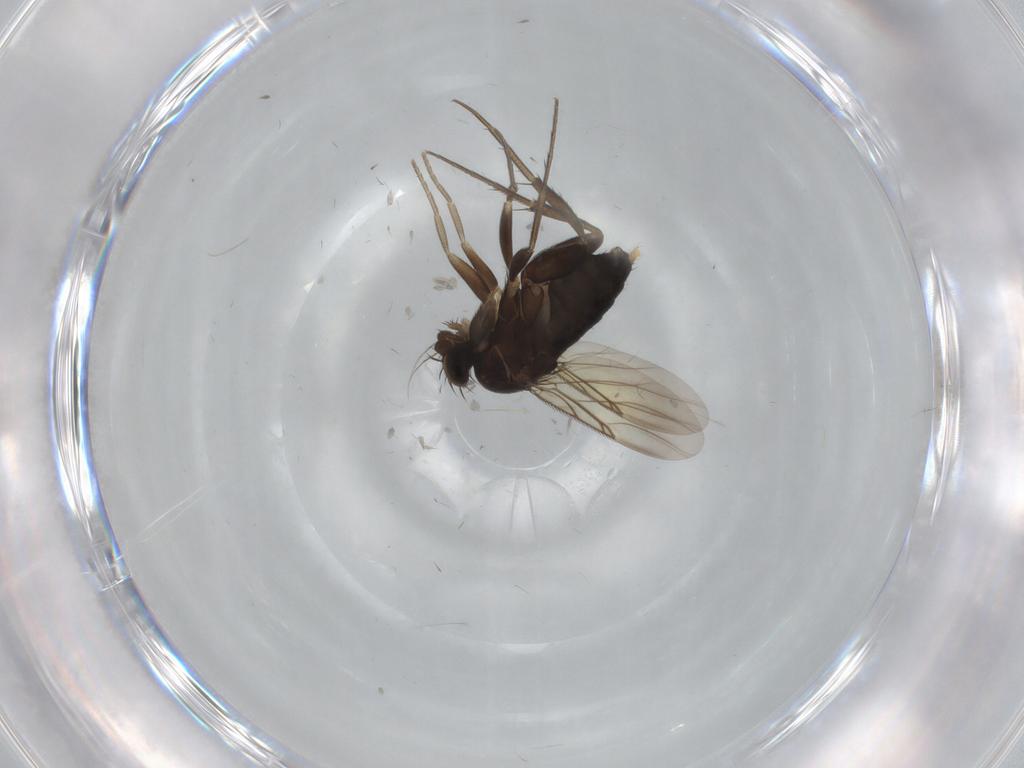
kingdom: Animalia
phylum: Arthropoda
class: Insecta
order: Diptera
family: Phoridae
